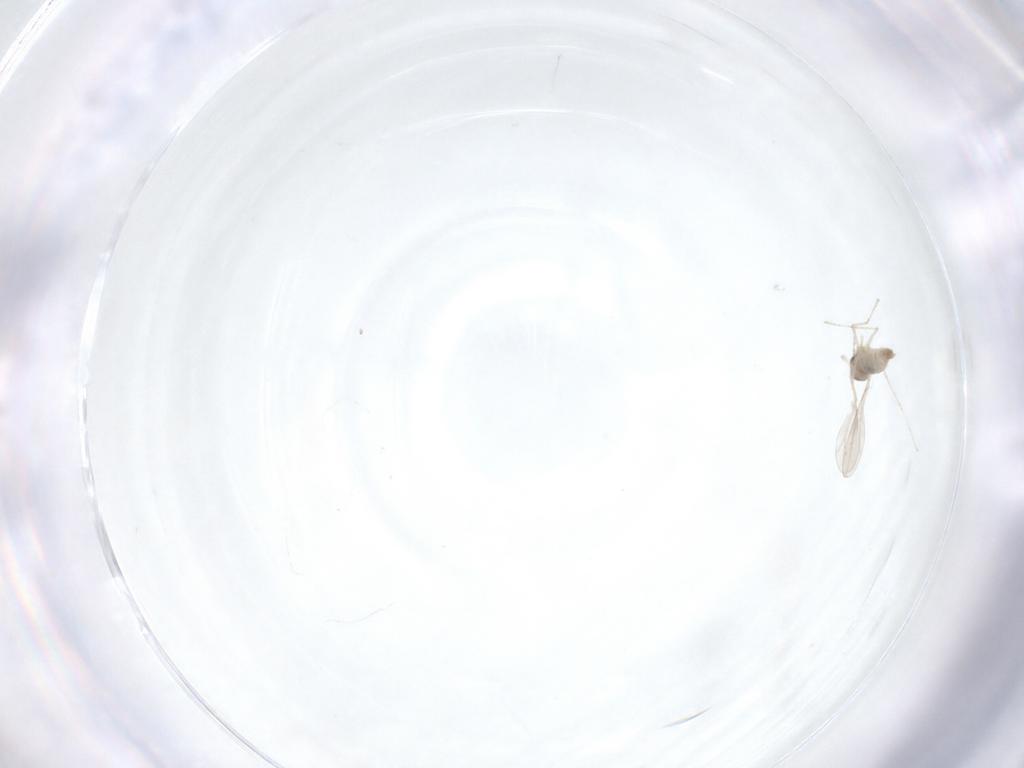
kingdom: Animalia
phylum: Arthropoda
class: Insecta
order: Diptera
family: Cecidomyiidae
